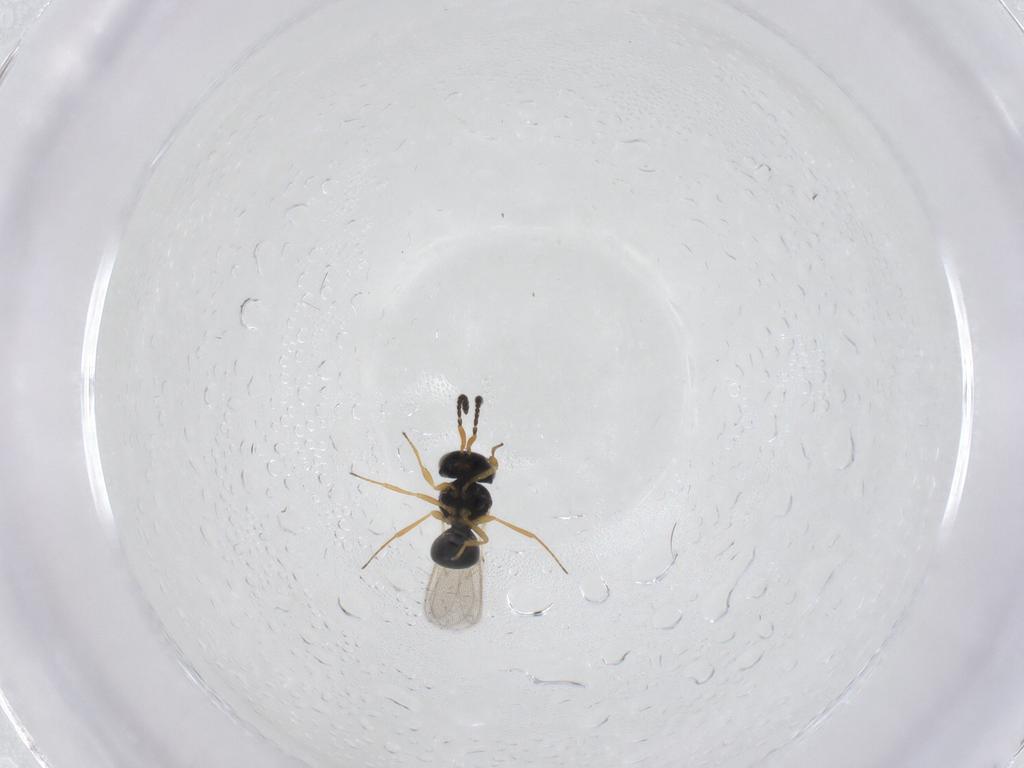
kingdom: Animalia
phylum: Arthropoda
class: Insecta
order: Hymenoptera
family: Scelionidae
